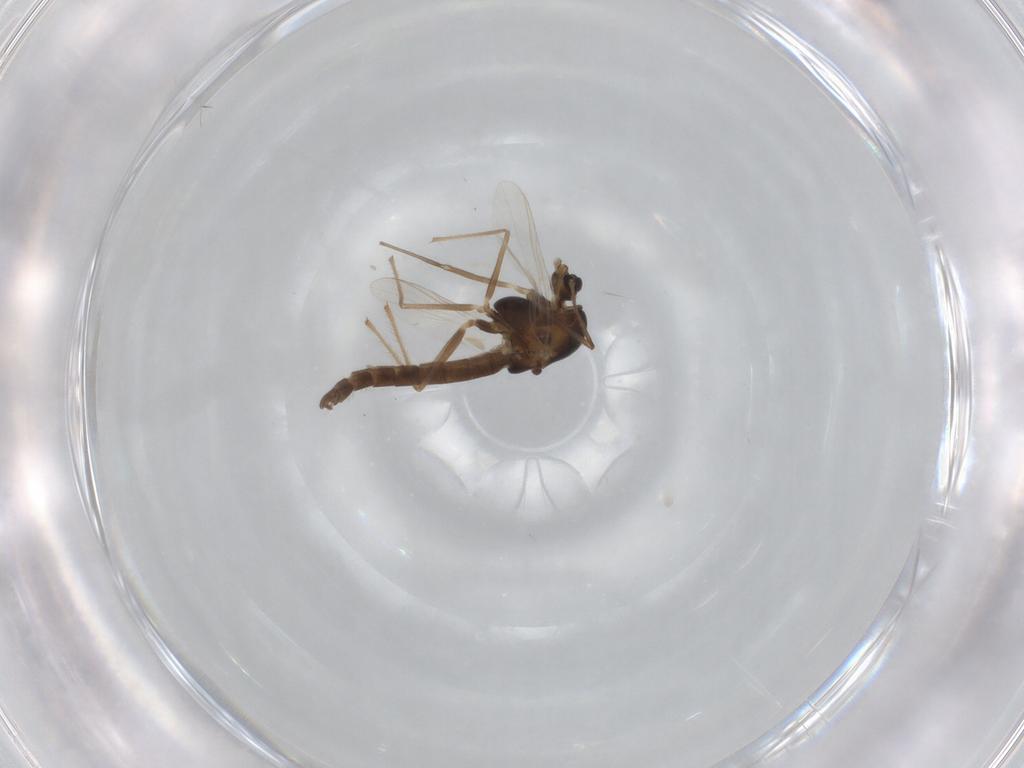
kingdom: Animalia
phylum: Arthropoda
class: Insecta
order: Diptera
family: Chironomidae
